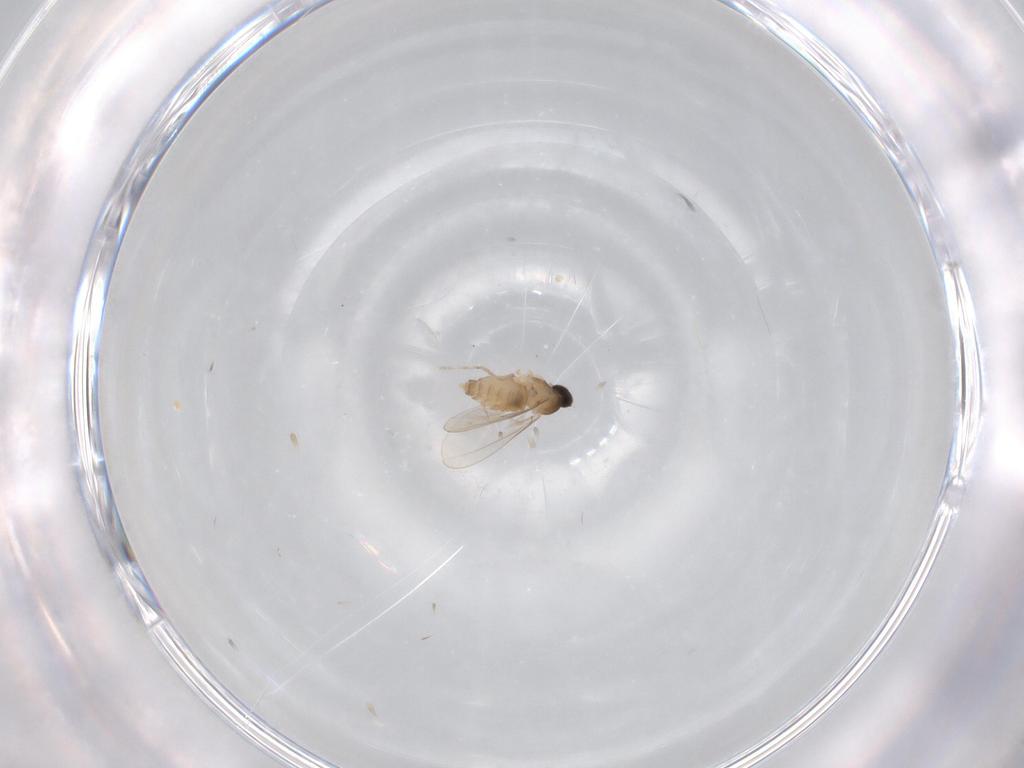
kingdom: Animalia
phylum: Arthropoda
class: Insecta
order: Diptera
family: Cecidomyiidae
